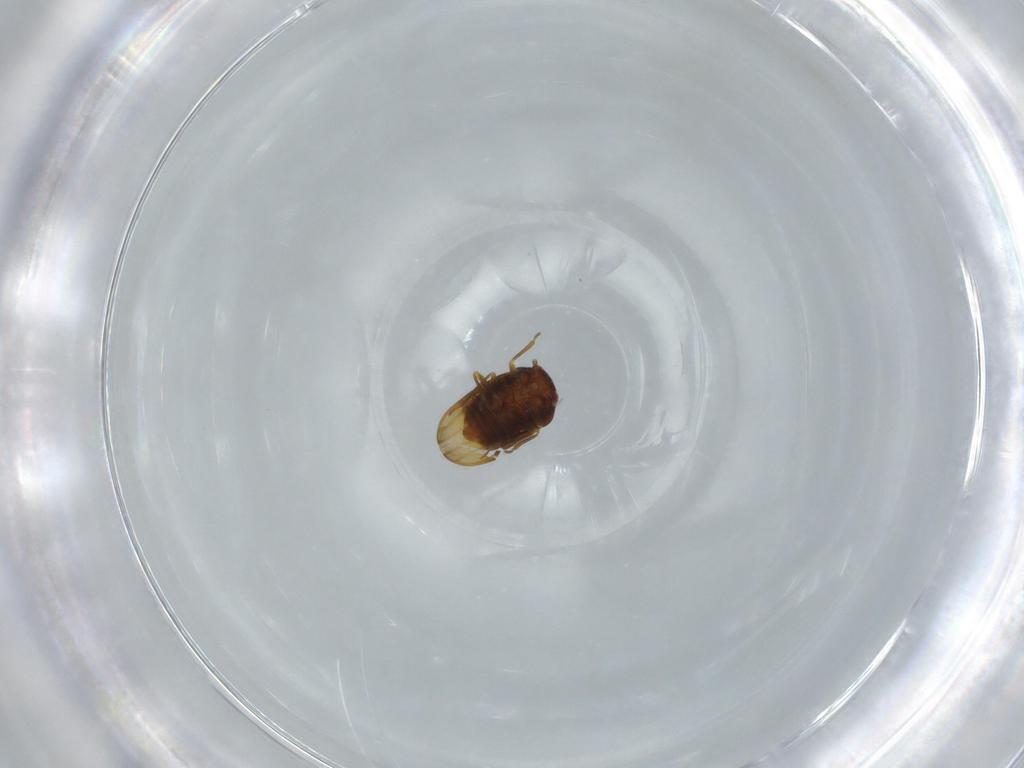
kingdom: Animalia
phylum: Arthropoda
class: Insecta
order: Hemiptera
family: Schizopteridae
